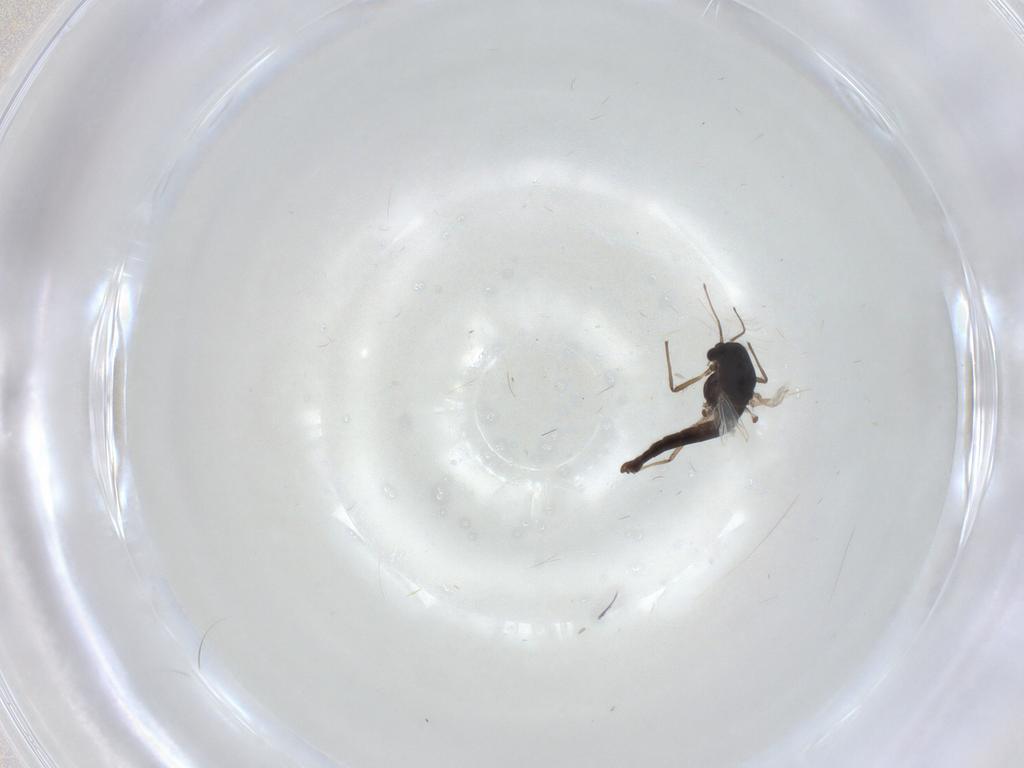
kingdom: Animalia
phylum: Arthropoda
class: Insecta
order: Diptera
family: Cecidomyiidae
